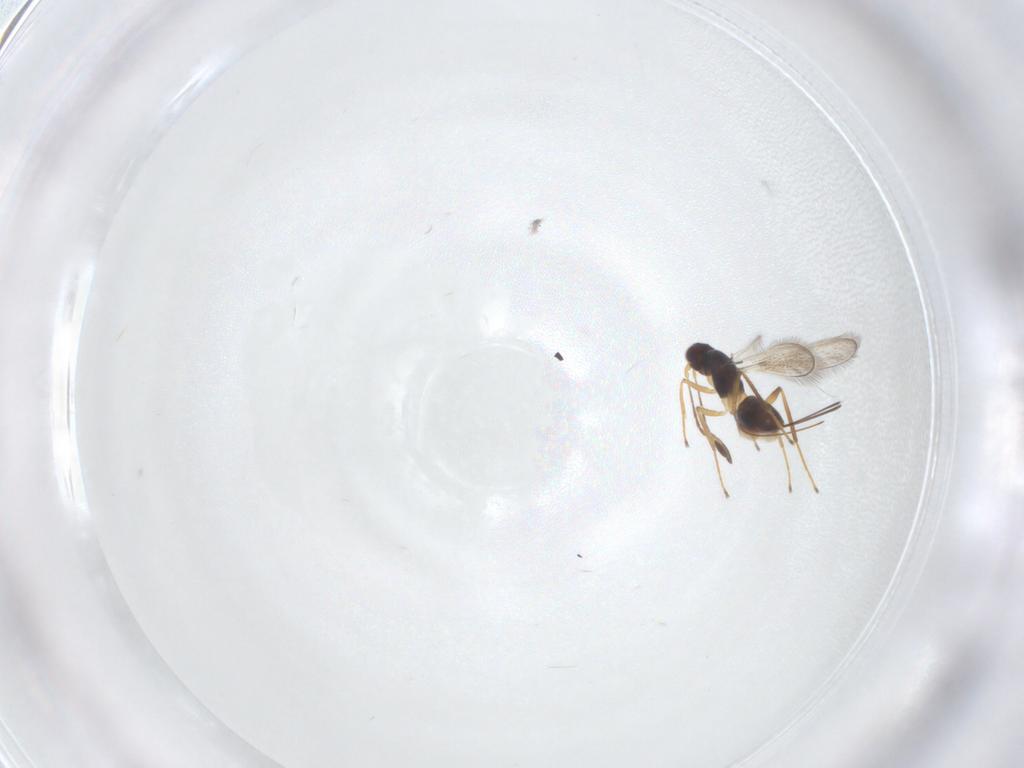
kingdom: Animalia
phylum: Arthropoda
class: Insecta
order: Hymenoptera
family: Mymaridae
